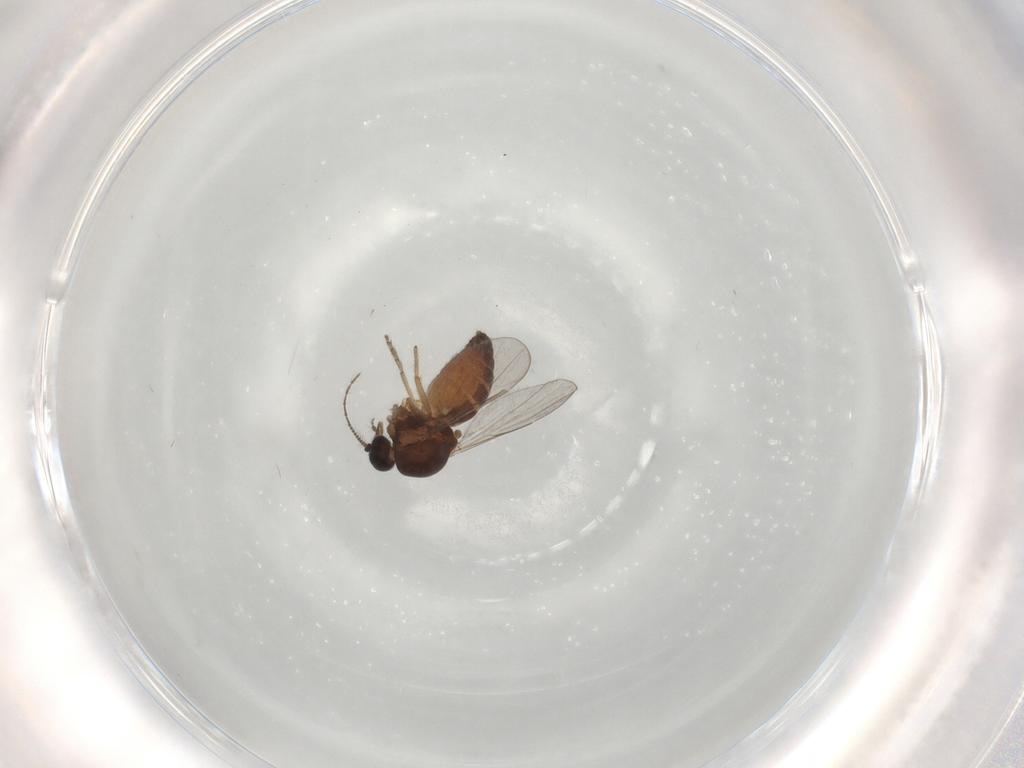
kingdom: Animalia
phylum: Arthropoda
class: Insecta
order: Diptera
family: Ceratopogonidae
